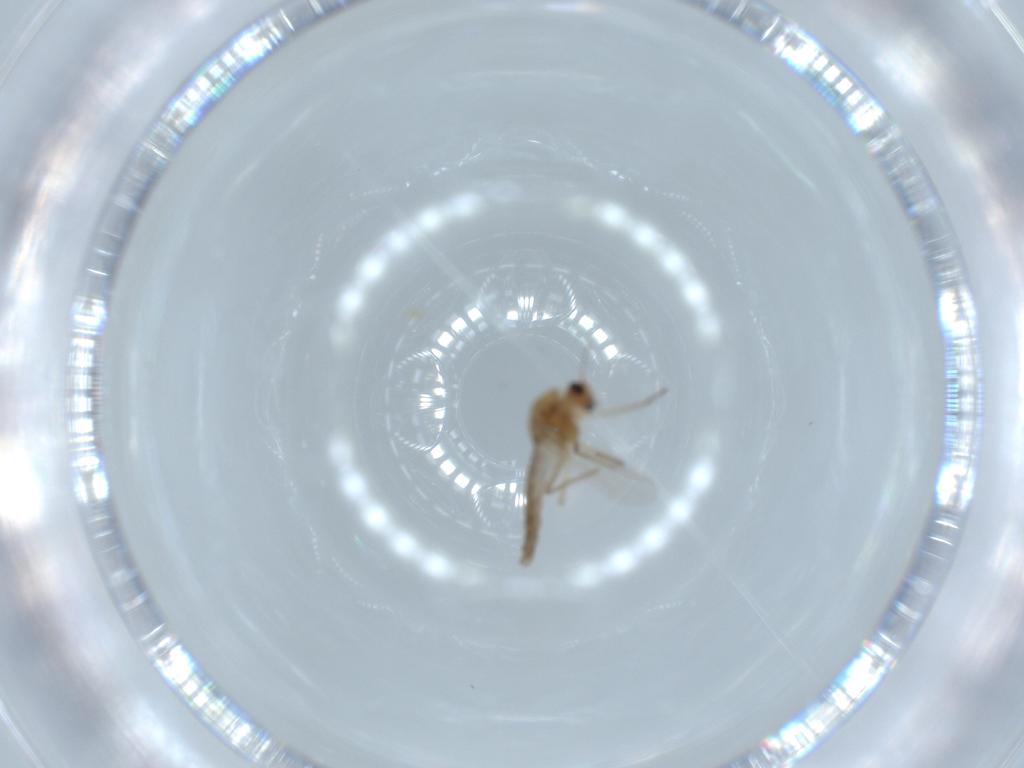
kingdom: Animalia
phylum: Arthropoda
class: Insecta
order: Diptera
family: Chironomidae
